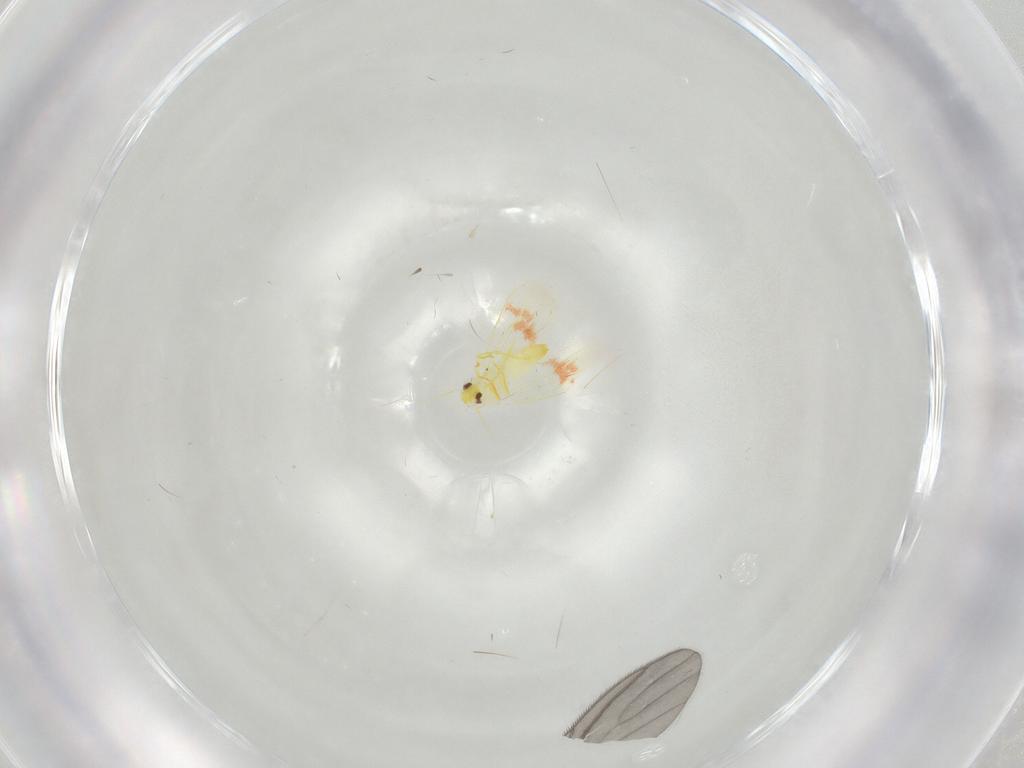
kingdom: Animalia
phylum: Arthropoda
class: Insecta
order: Hemiptera
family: Aleyrodidae
